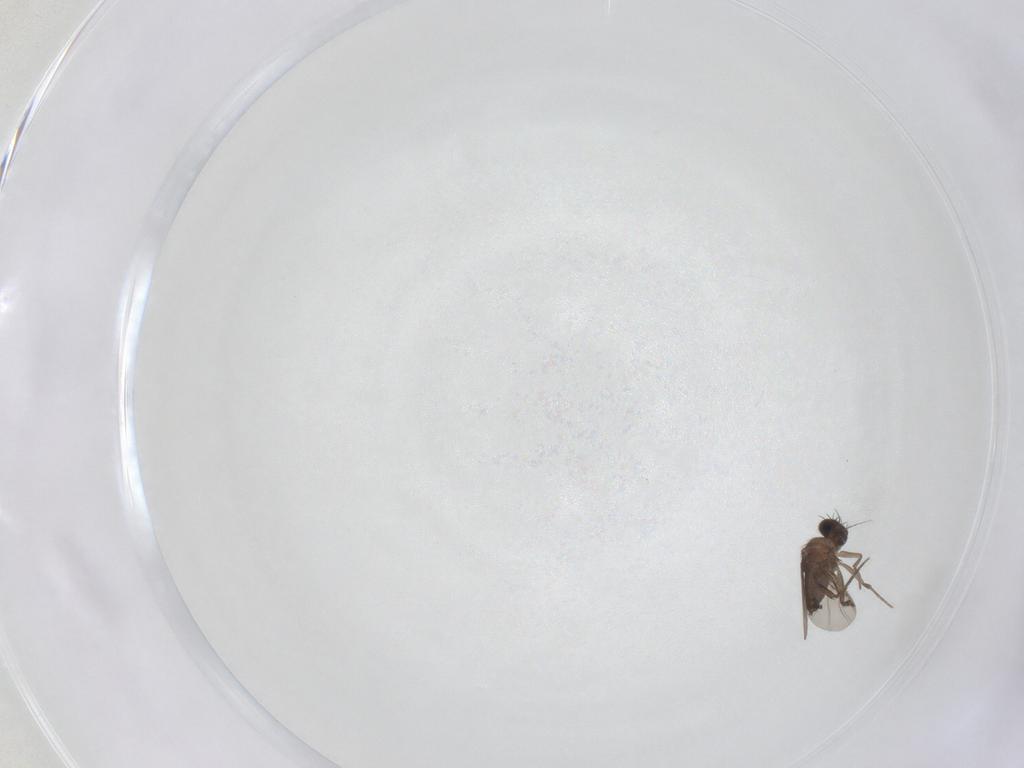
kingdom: Animalia
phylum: Arthropoda
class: Insecta
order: Diptera
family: Phoridae
